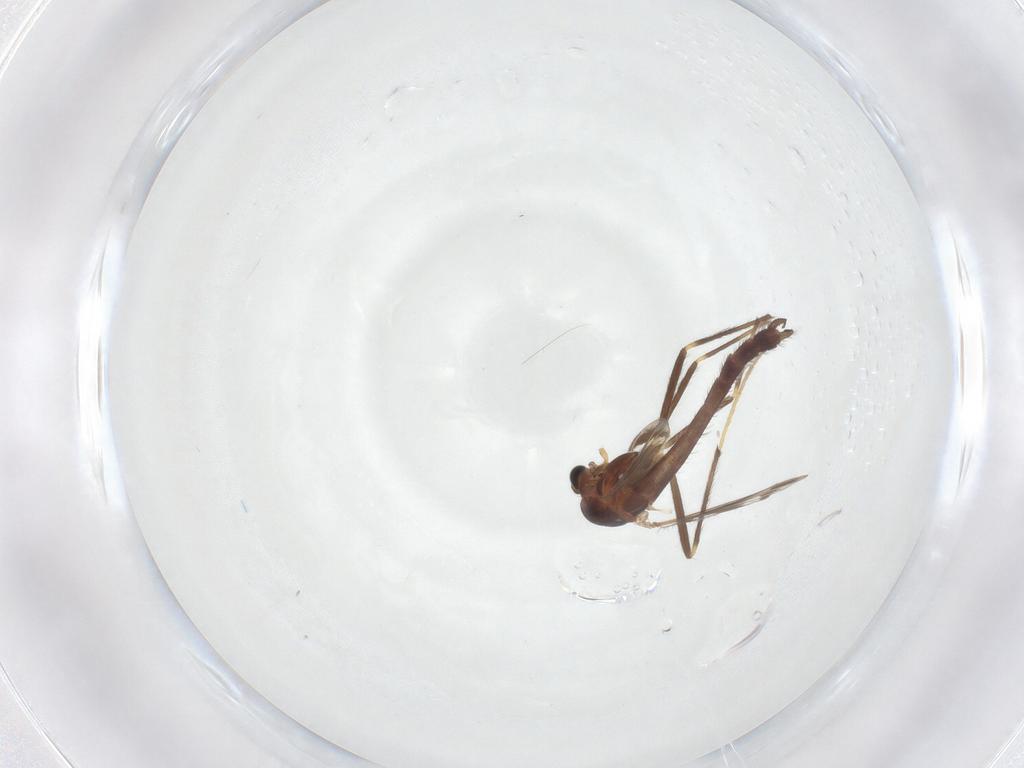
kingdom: Animalia
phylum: Arthropoda
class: Insecta
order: Diptera
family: Chironomidae
